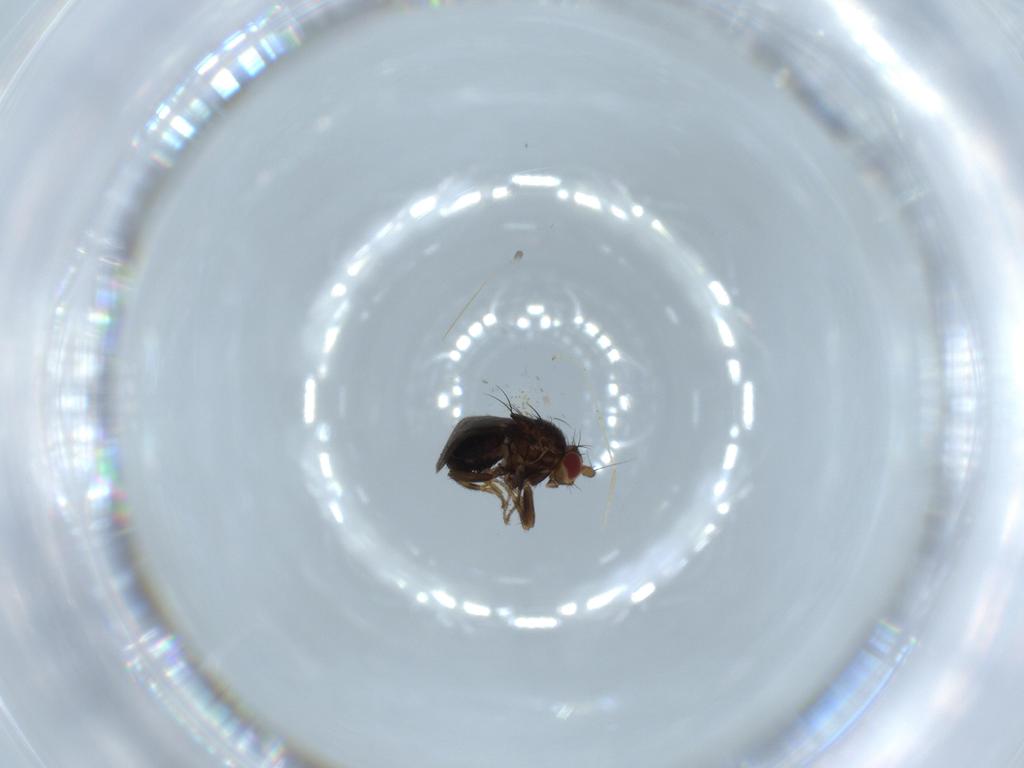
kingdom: Animalia
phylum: Arthropoda
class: Insecta
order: Diptera
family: Sphaeroceridae
